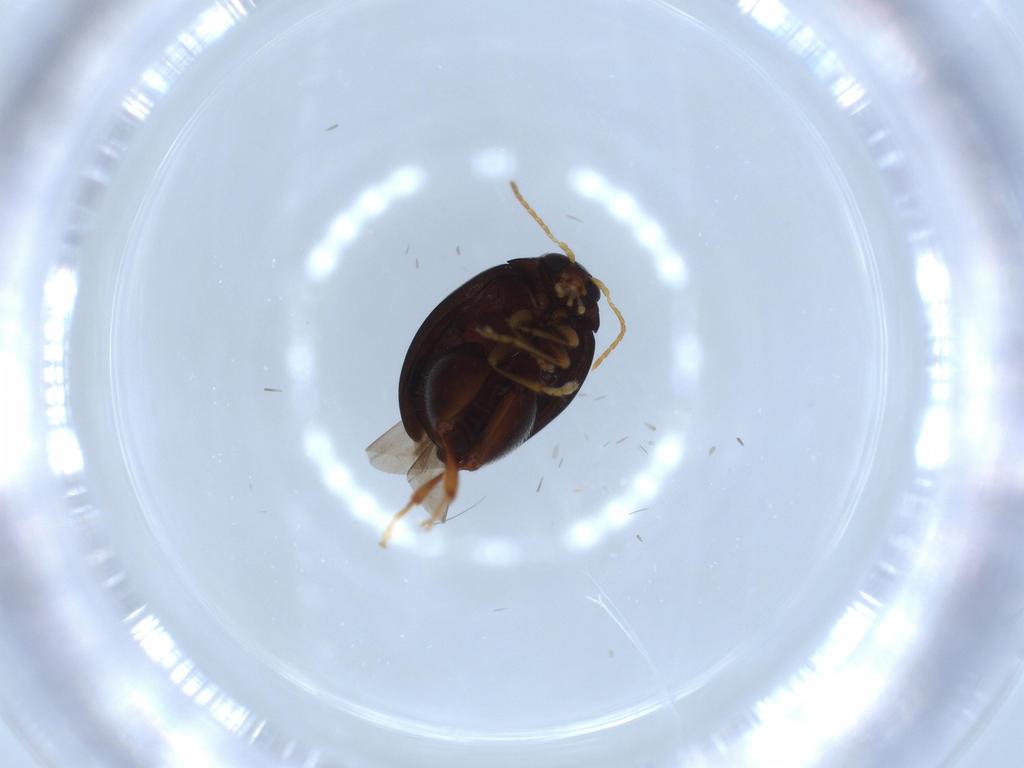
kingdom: Animalia
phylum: Arthropoda
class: Insecta
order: Coleoptera
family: Chrysomelidae
